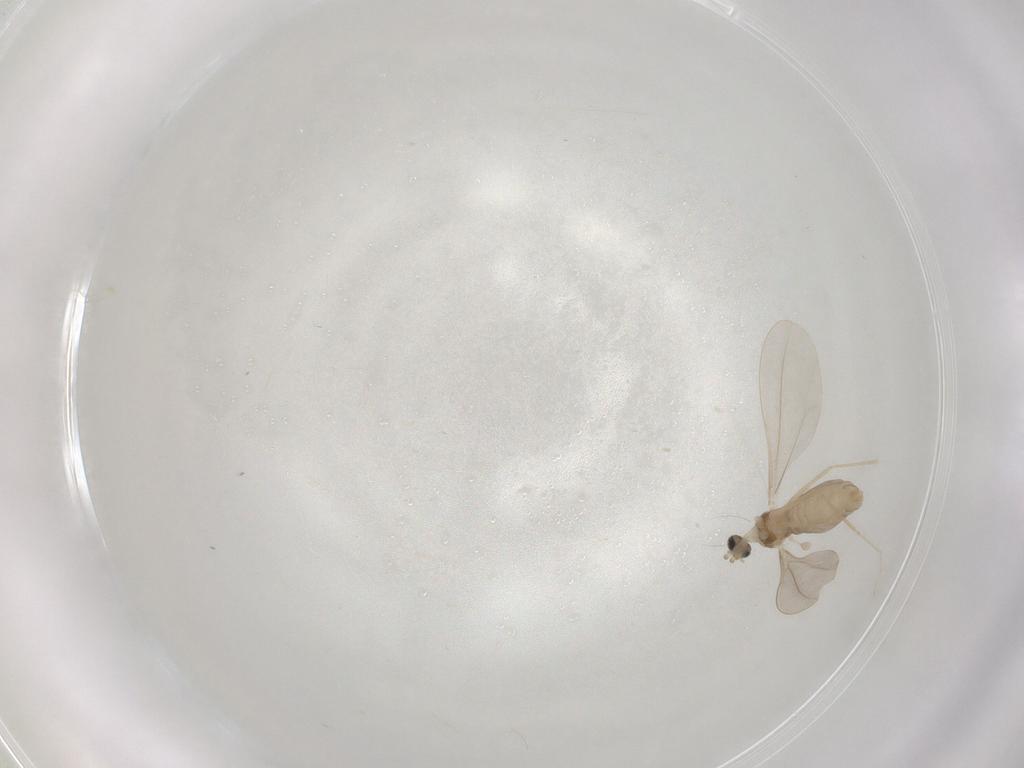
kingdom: Animalia
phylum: Arthropoda
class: Insecta
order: Diptera
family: Cecidomyiidae
